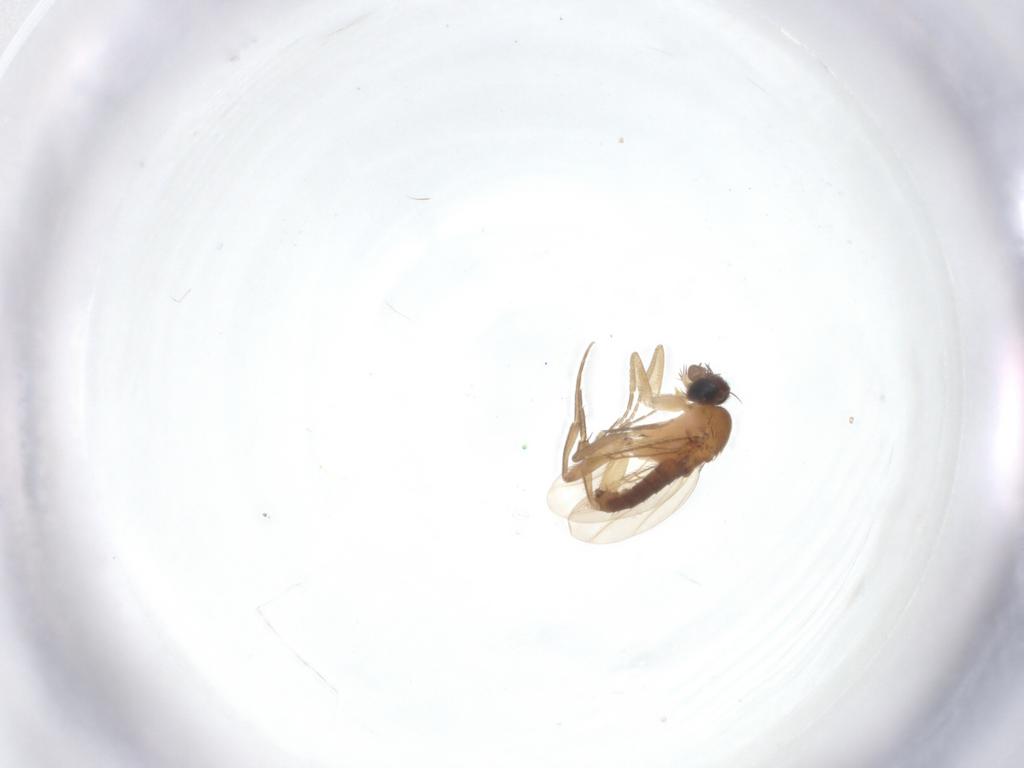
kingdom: Animalia
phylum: Arthropoda
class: Insecta
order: Diptera
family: Phoridae
